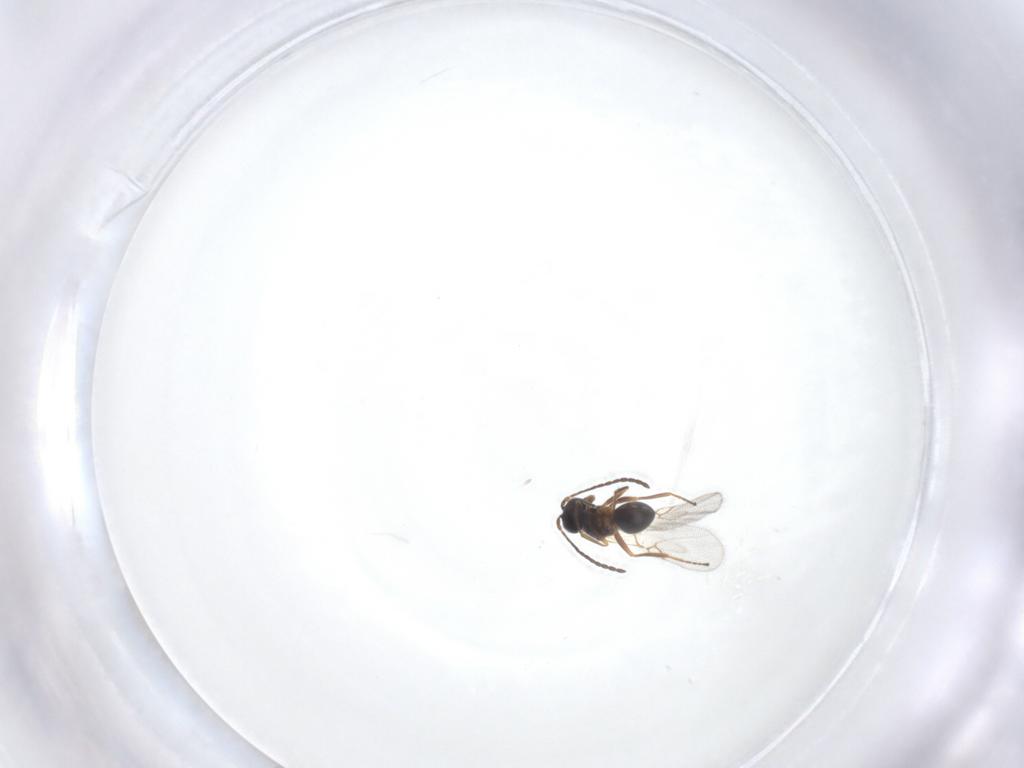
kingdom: Animalia
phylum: Arthropoda
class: Insecta
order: Hymenoptera
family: Figitidae
